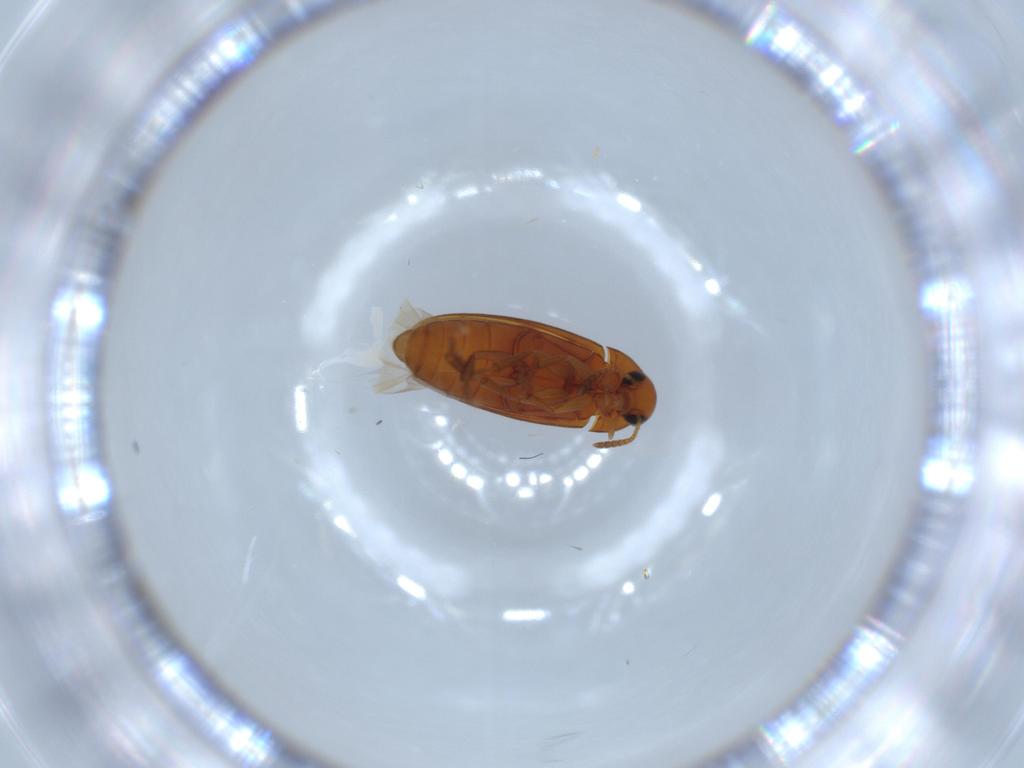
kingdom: Animalia
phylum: Arthropoda
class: Insecta
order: Coleoptera
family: Scraptiidae
